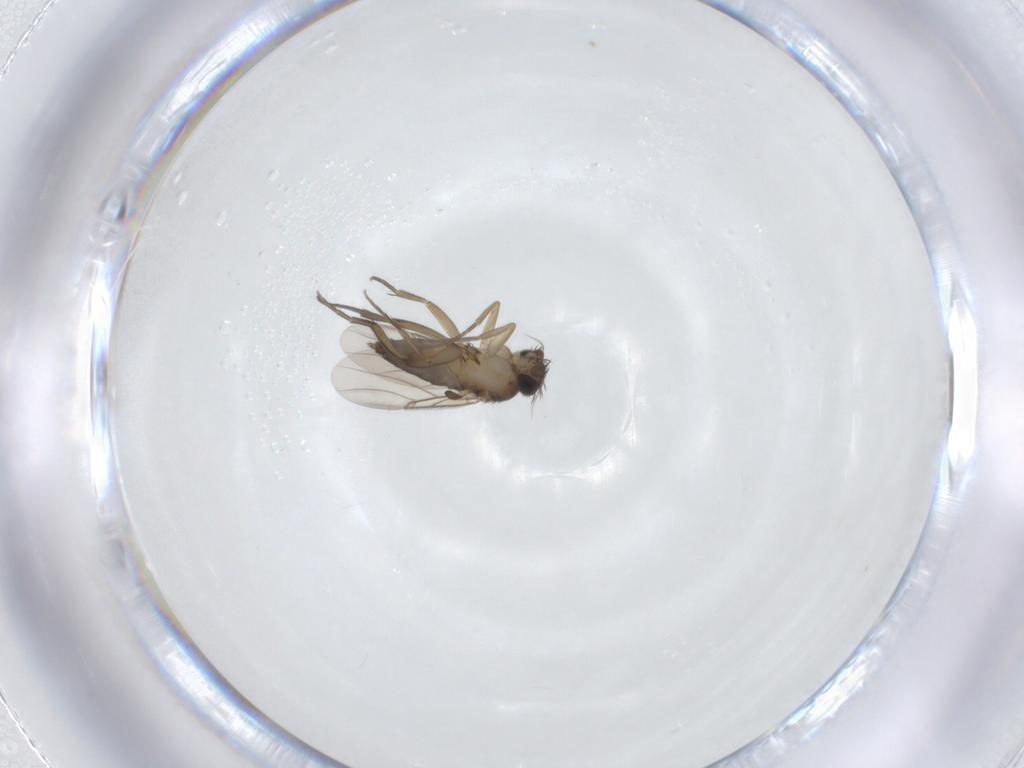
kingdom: Animalia
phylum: Arthropoda
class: Insecta
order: Diptera
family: Phoridae
